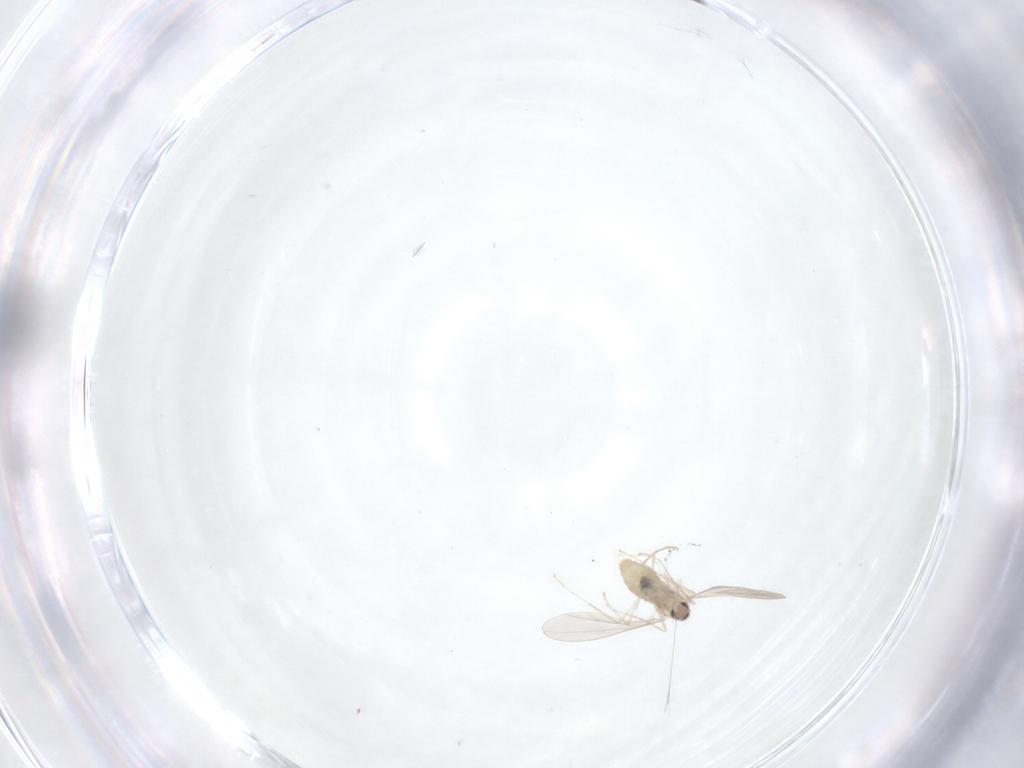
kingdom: Animalia
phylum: Arthropoda
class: Insecta
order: Diptera
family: Cecidomyiidae
